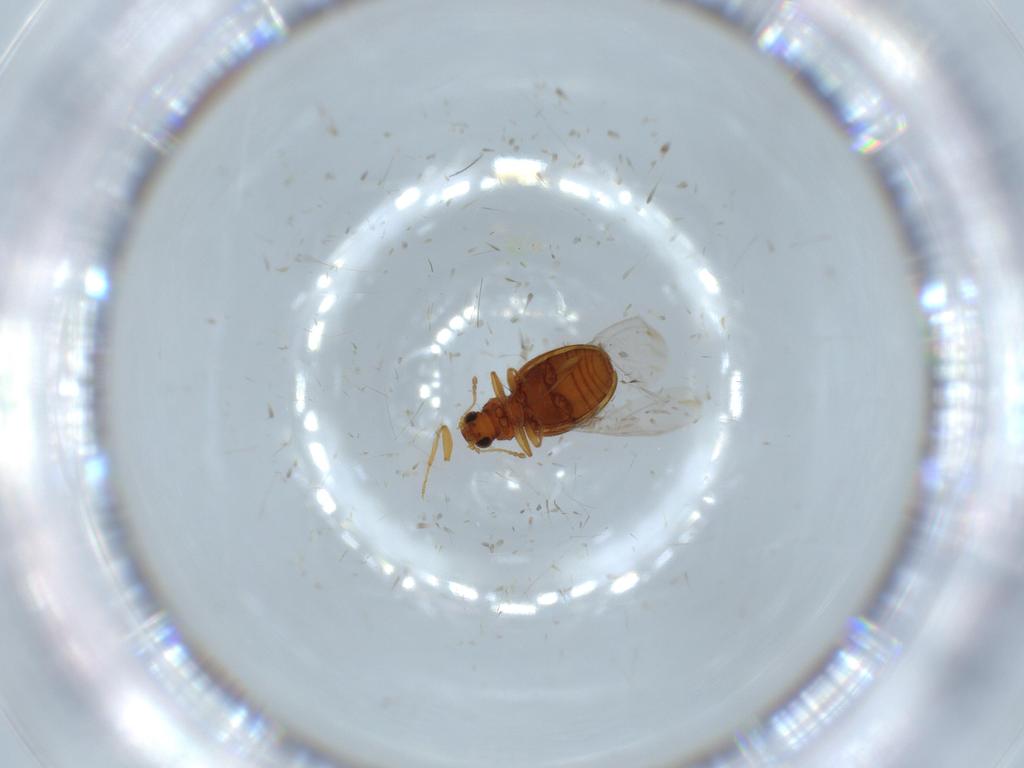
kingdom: Animalia
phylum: Arthropoda
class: Insecta
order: Coleoptera
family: Latridiidae
